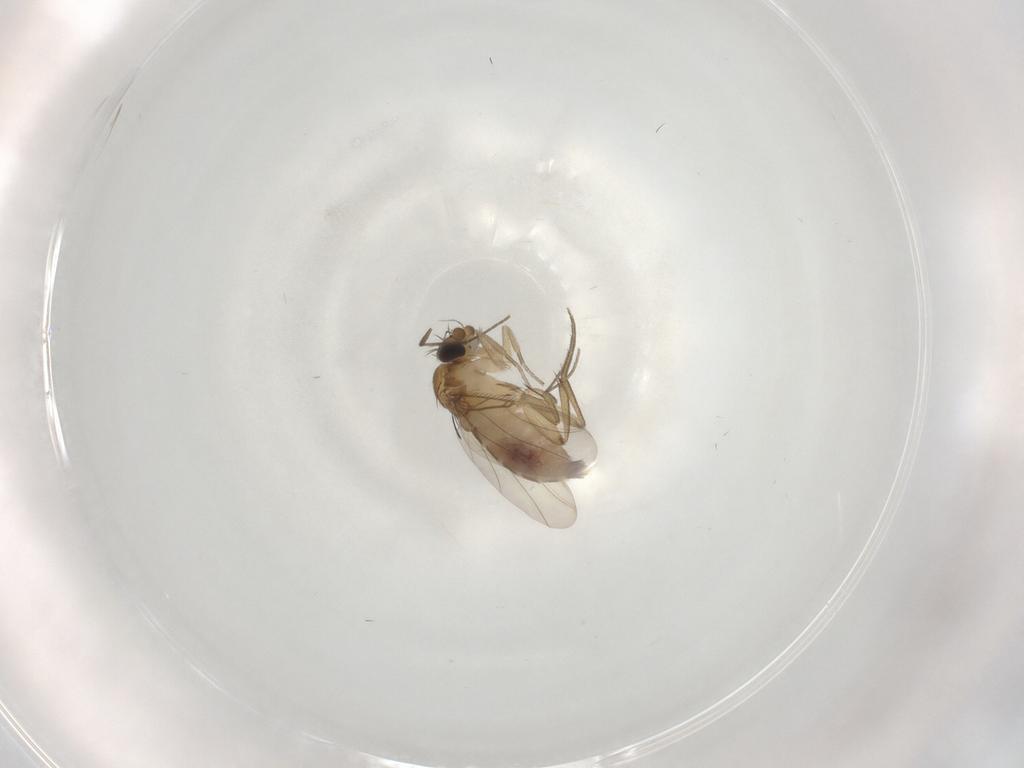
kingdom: Animalia
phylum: Arthropoda
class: Insecta
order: Diptera
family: Phoridae
